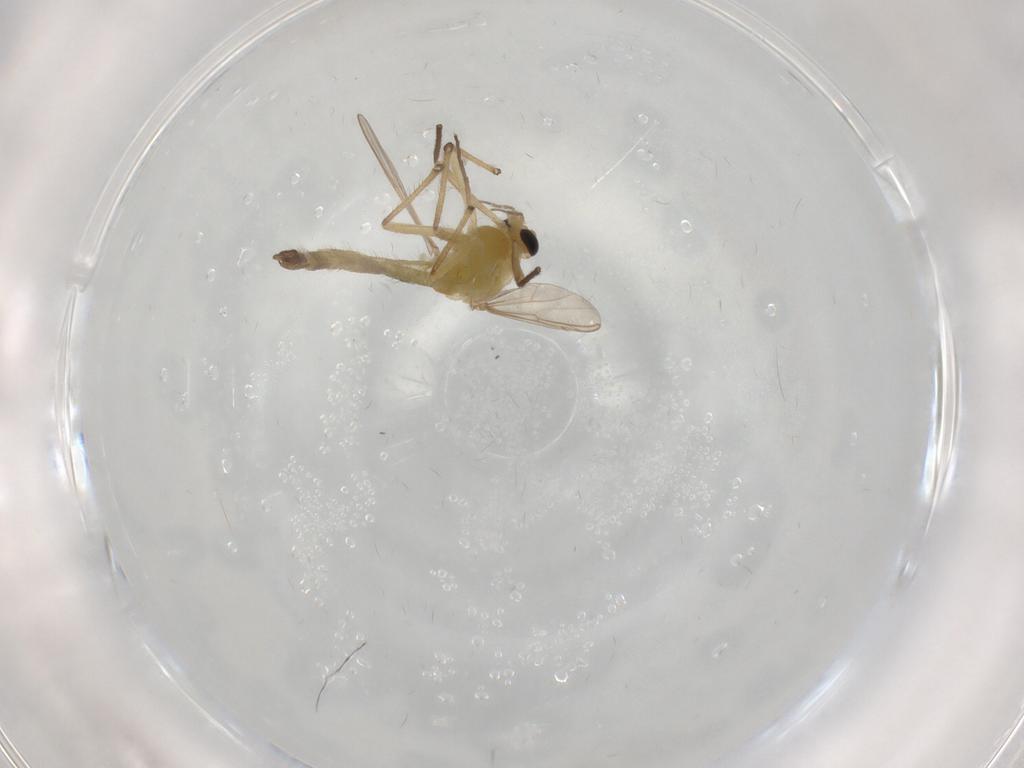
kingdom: Animalia
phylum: Arthropoda
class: Insecta
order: Diptera
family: Chironomidae
